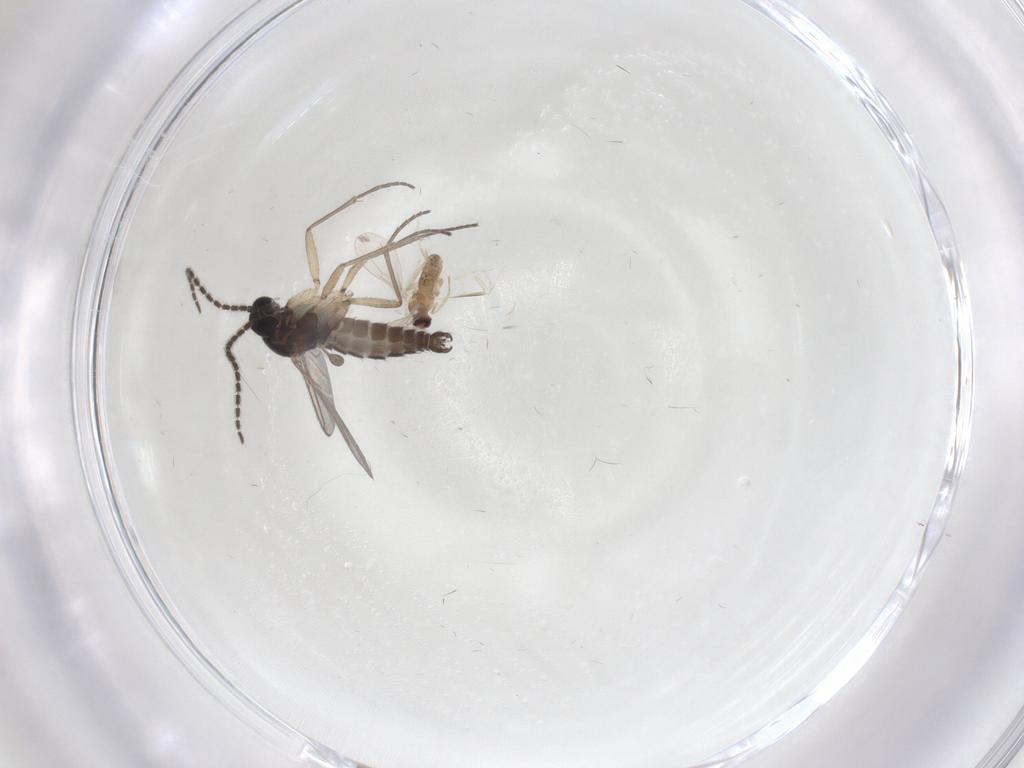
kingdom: Animalia
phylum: Arthropoda
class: Insecta
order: Diptera
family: Cecidomyiidae
